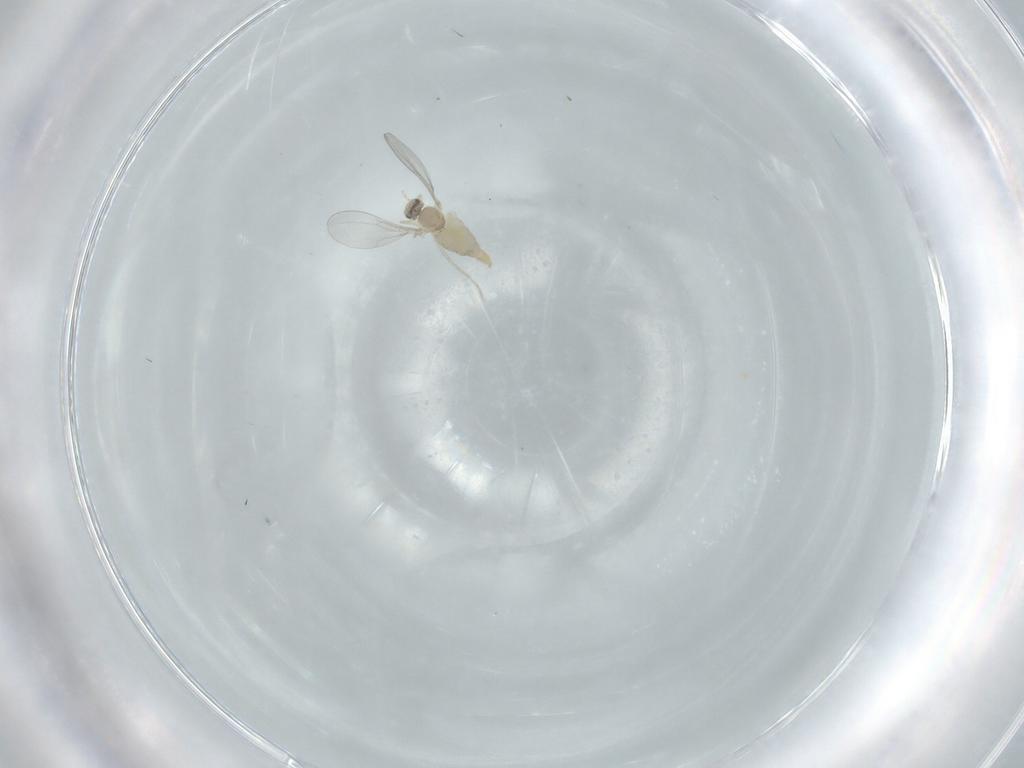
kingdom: Animalia
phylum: Arthropoda
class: Insecta
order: Diptera
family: Cecidomyiidae
